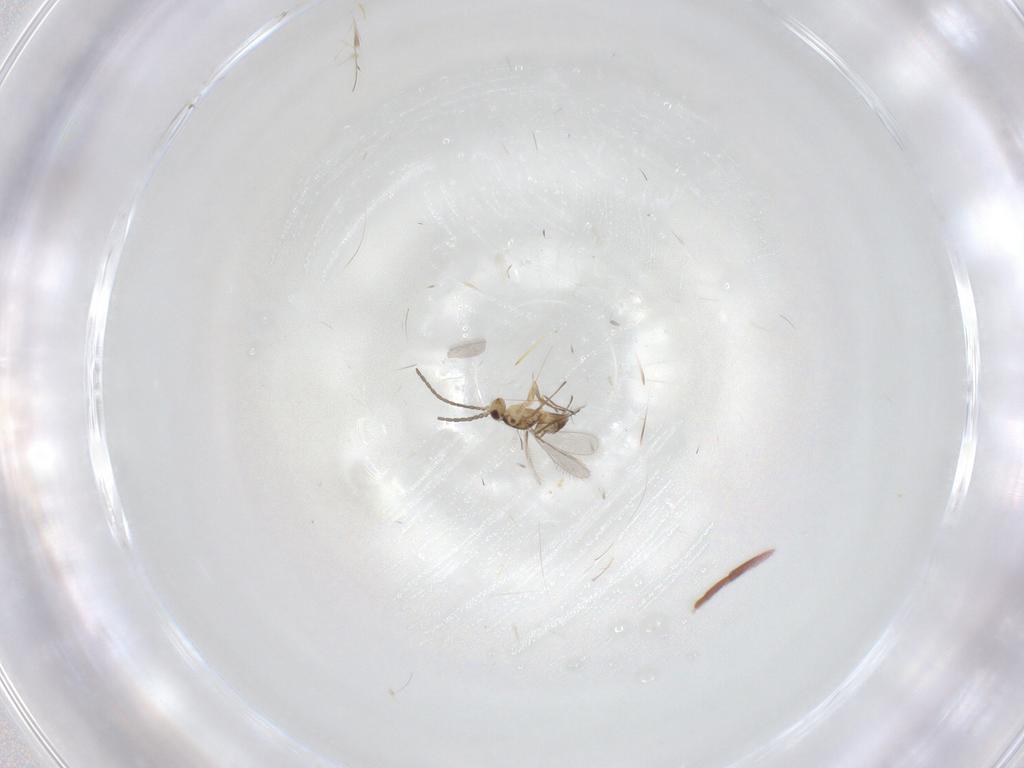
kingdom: Animalia
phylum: Arthropoda
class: Insecta
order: Hymenoptera
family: Mymaridae
